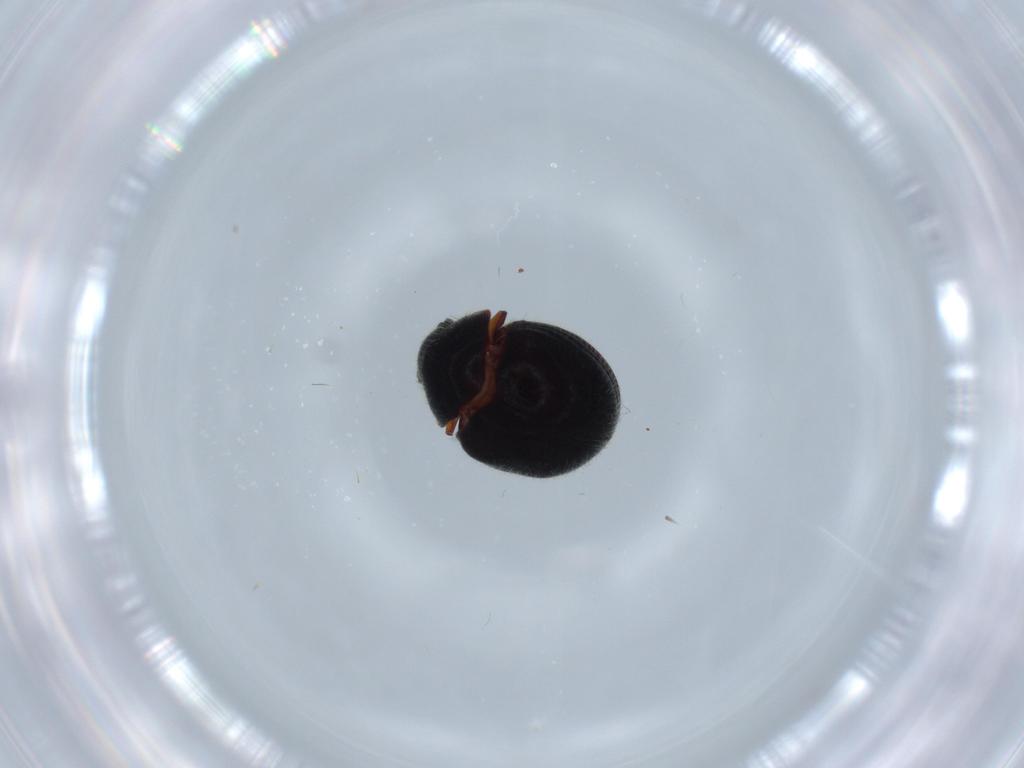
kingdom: Animalia
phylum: Arthropoda
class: Insecta
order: Coleoptera
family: Ptinidae
